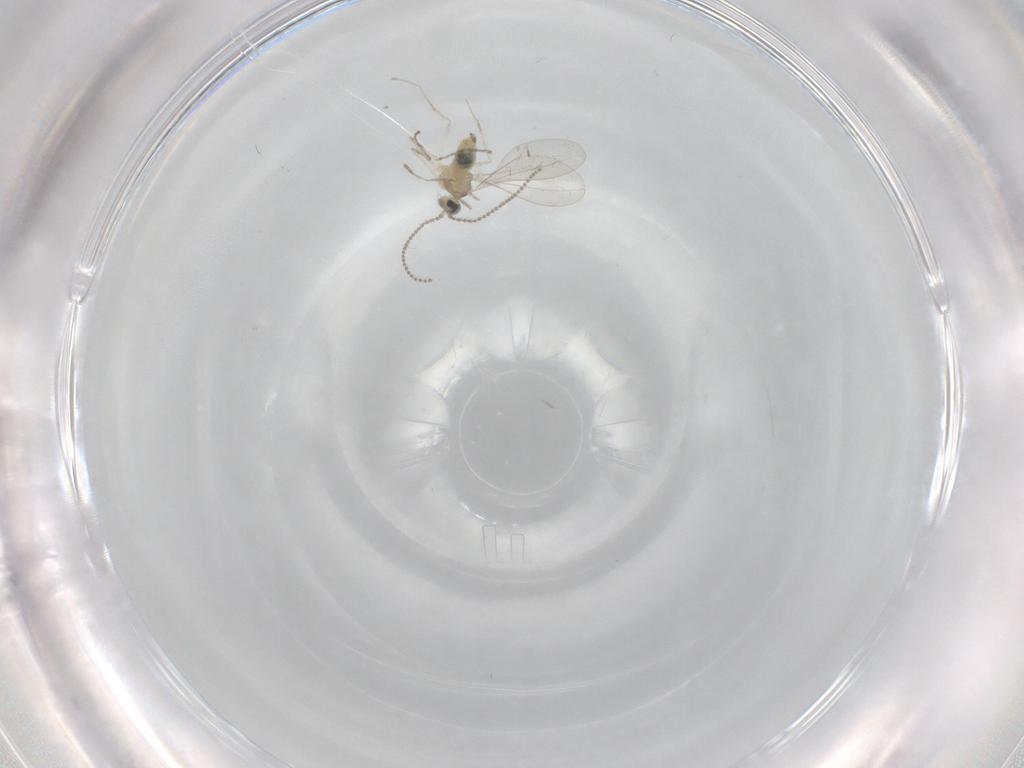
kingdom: Animalia
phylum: Arthropoda
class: Insecta
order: Diptera
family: Cecidomyiidae
